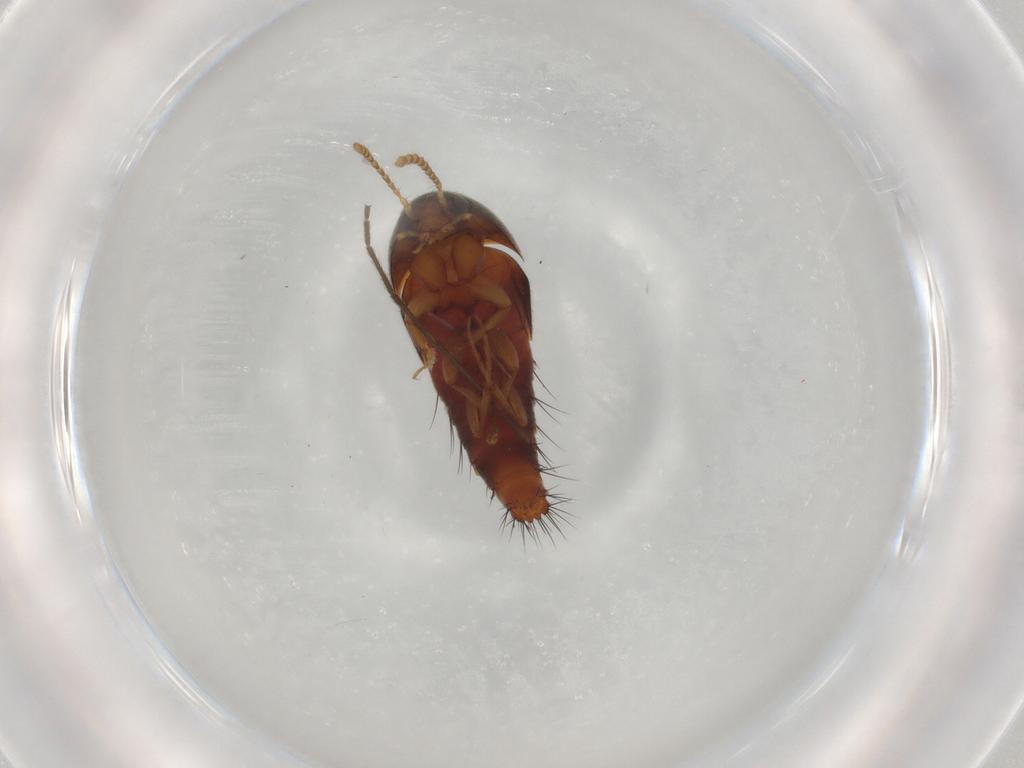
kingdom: Animalia
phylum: Arthropoda
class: Insecta
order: Coleoptera
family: Staphylinidae
